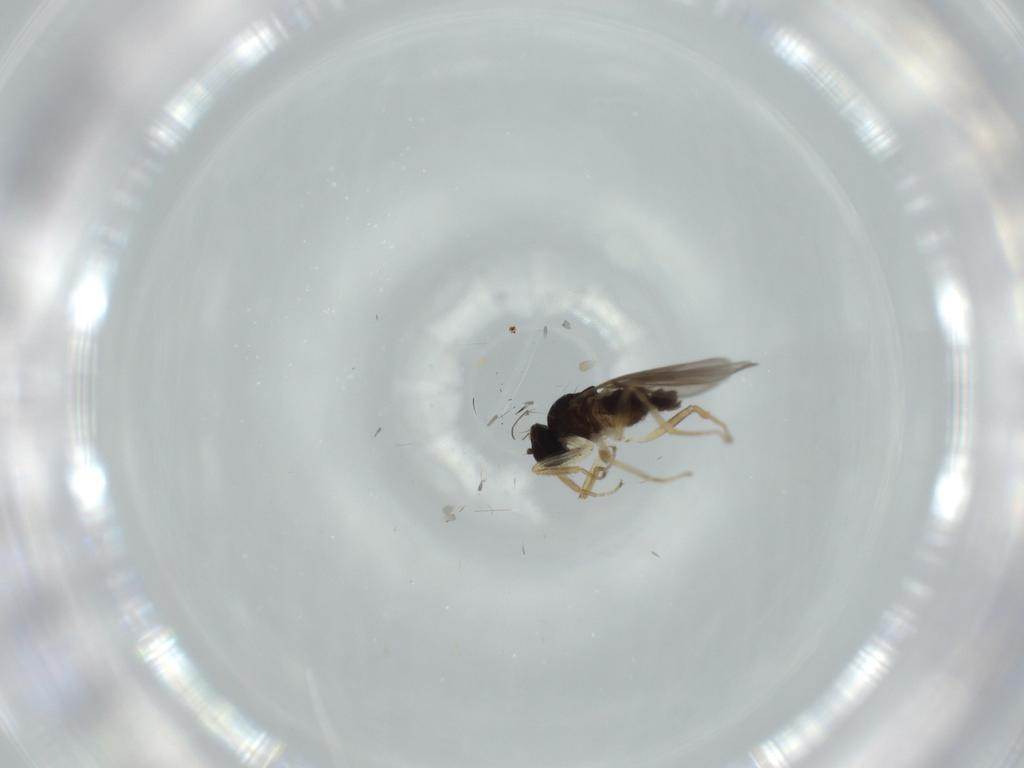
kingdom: Animalia
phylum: Arthropoda
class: Insecta
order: Diptera
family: Hybotidae
